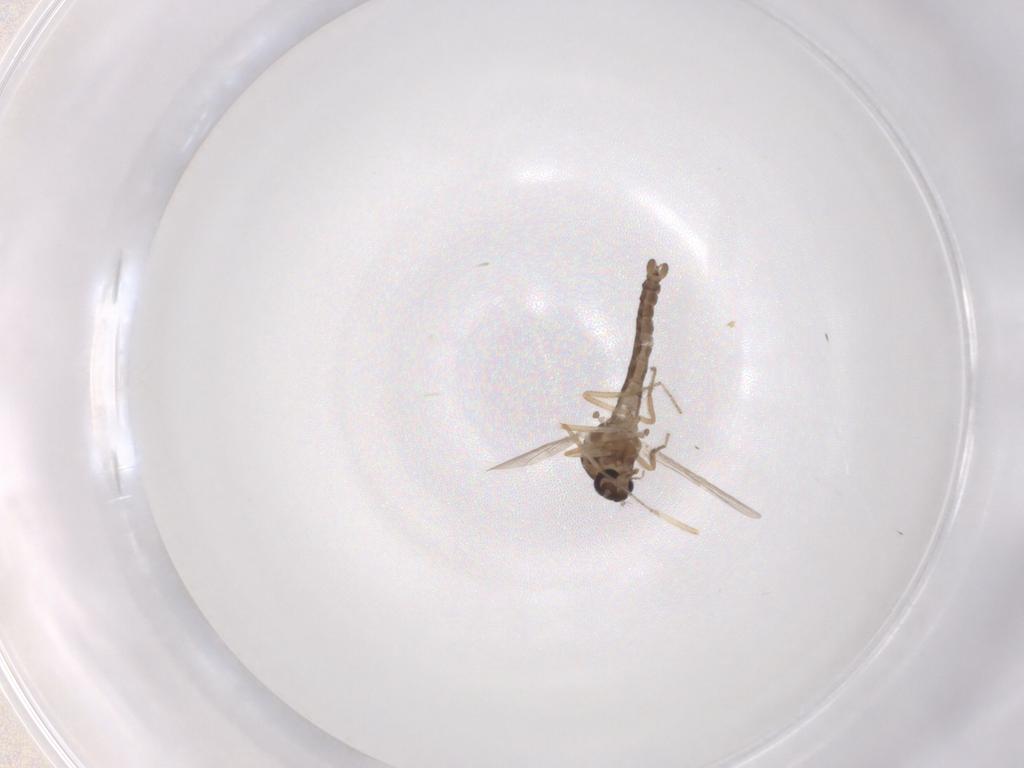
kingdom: Animalia
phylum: Arthropoda
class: Insecta
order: Diptera
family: Ceratopogonidae
